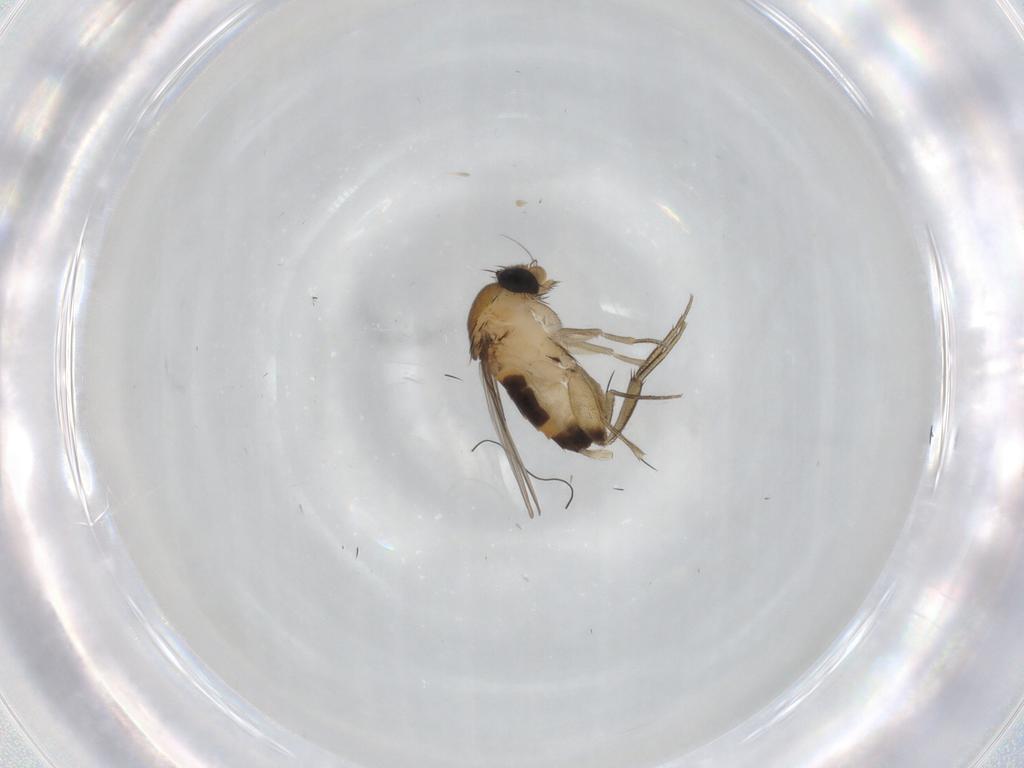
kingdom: Animalia
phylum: Arthropoda
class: Insecta
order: Diptera
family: Phoridae
